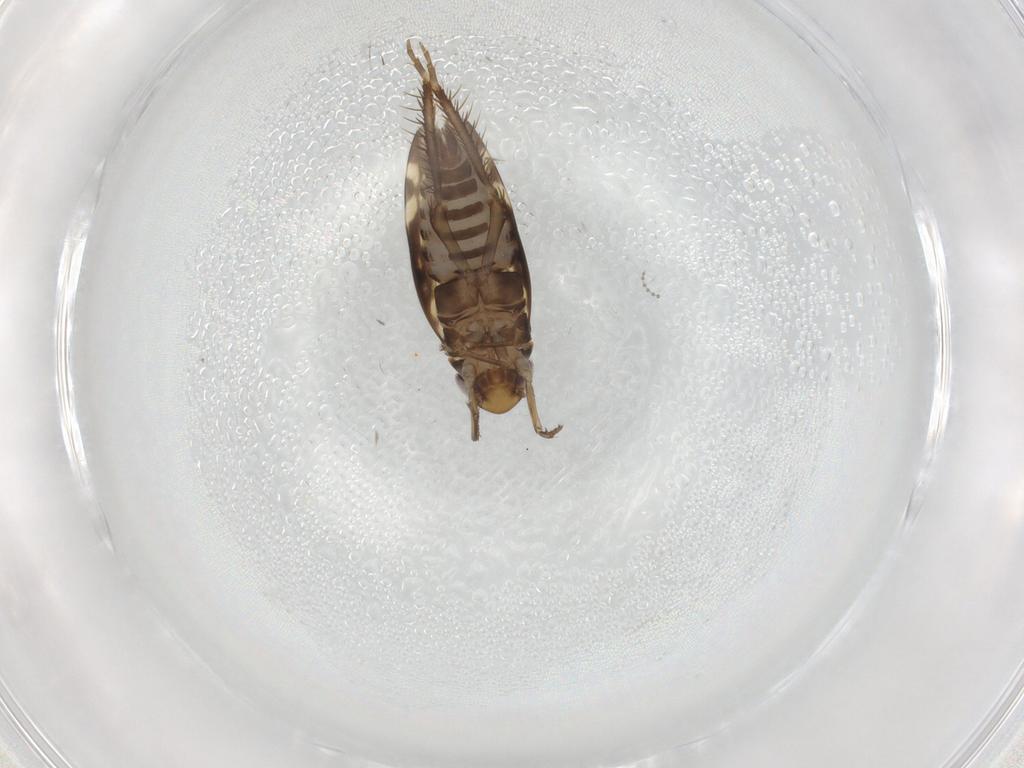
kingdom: Animalia
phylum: Arthropoda
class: Insecta
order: Hemiptera
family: Cicadellidae
